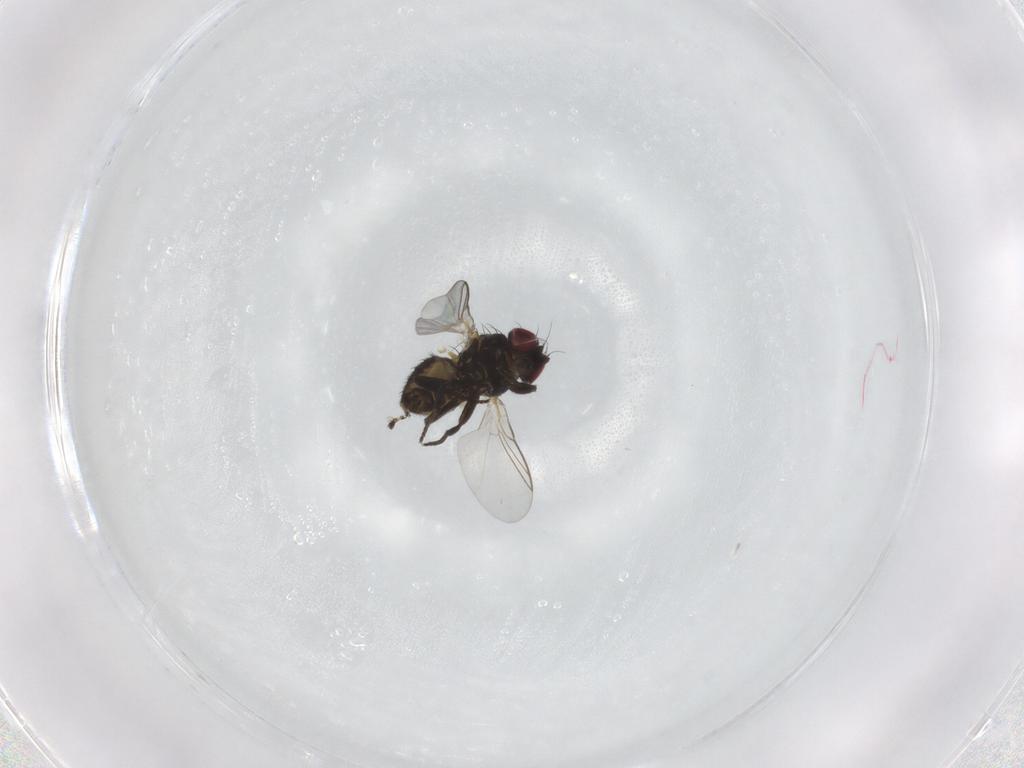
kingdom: Animalia
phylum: Arthropoda
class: Insecta
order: Diptera
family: Agromyzidae
